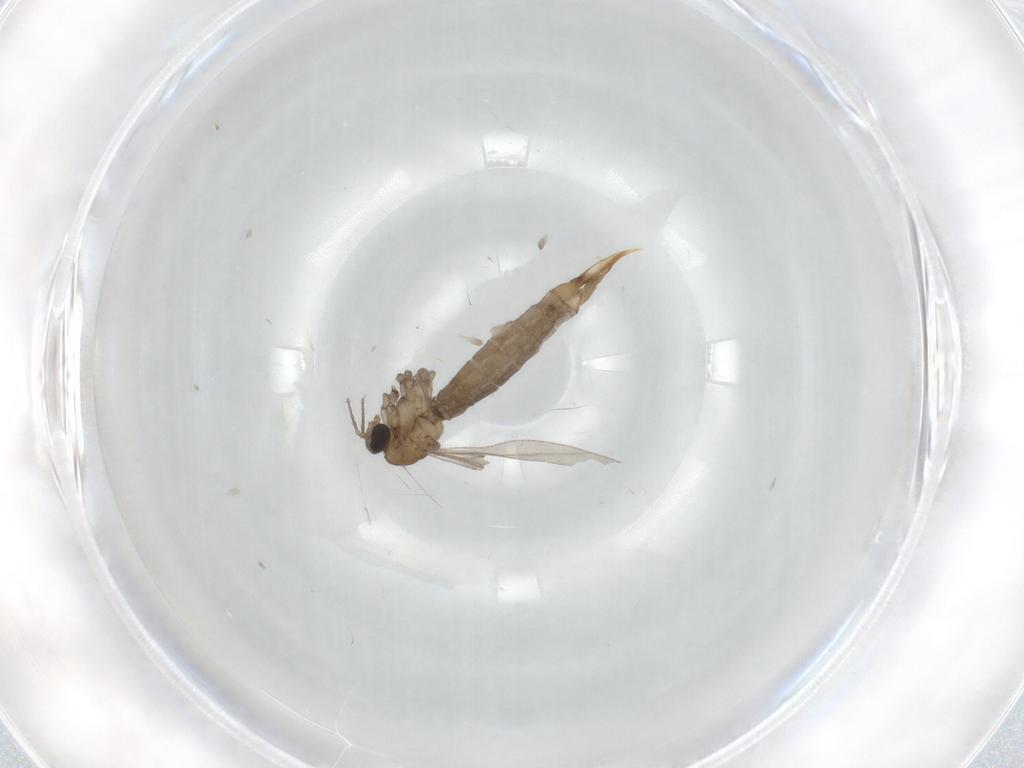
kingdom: Animalia
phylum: Arthropoda
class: Insecta
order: Diptera
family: Limoniidae
